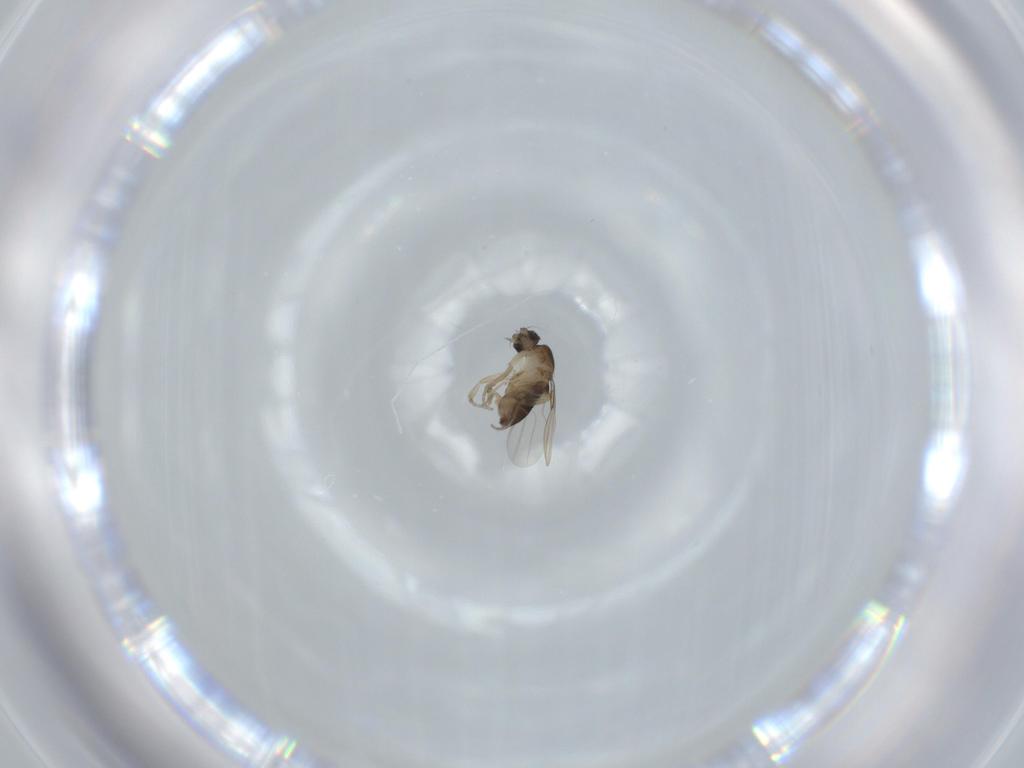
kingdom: Animalia
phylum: Arthropoda
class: Insecta
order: Diptera
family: Phoridae
